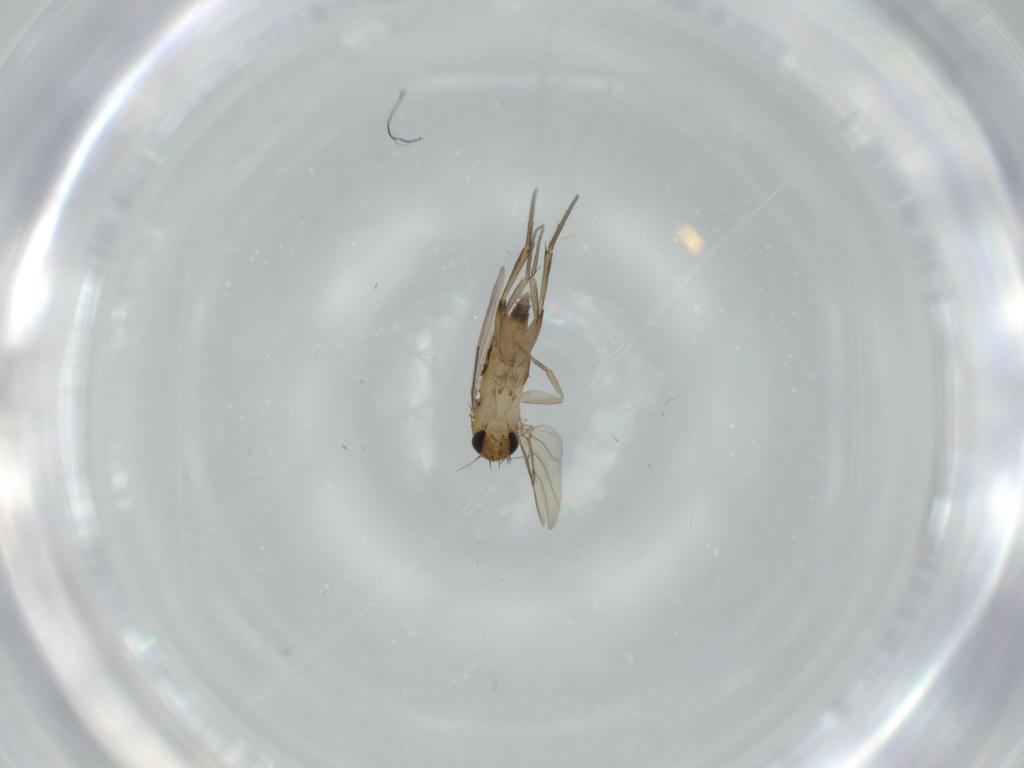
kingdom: Animalia
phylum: Arthropoda
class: Insecta
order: Diptera
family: Phoridae
